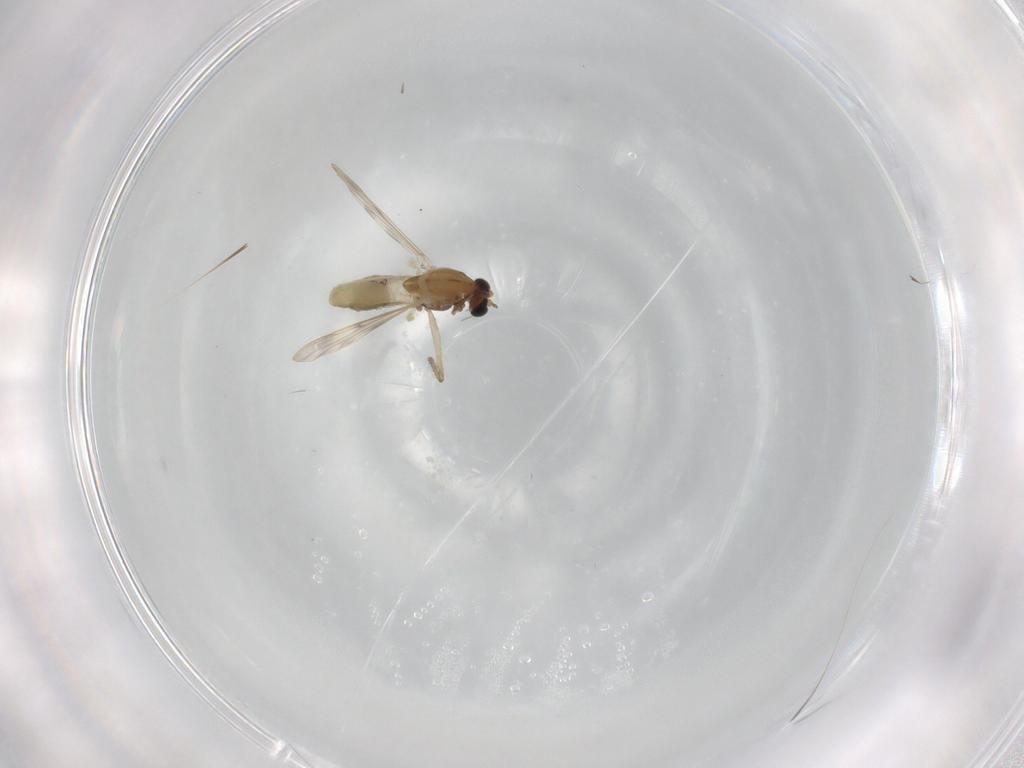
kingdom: Animalia
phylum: Arthropoda
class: Insecta
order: Diptera
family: Chironomidae
